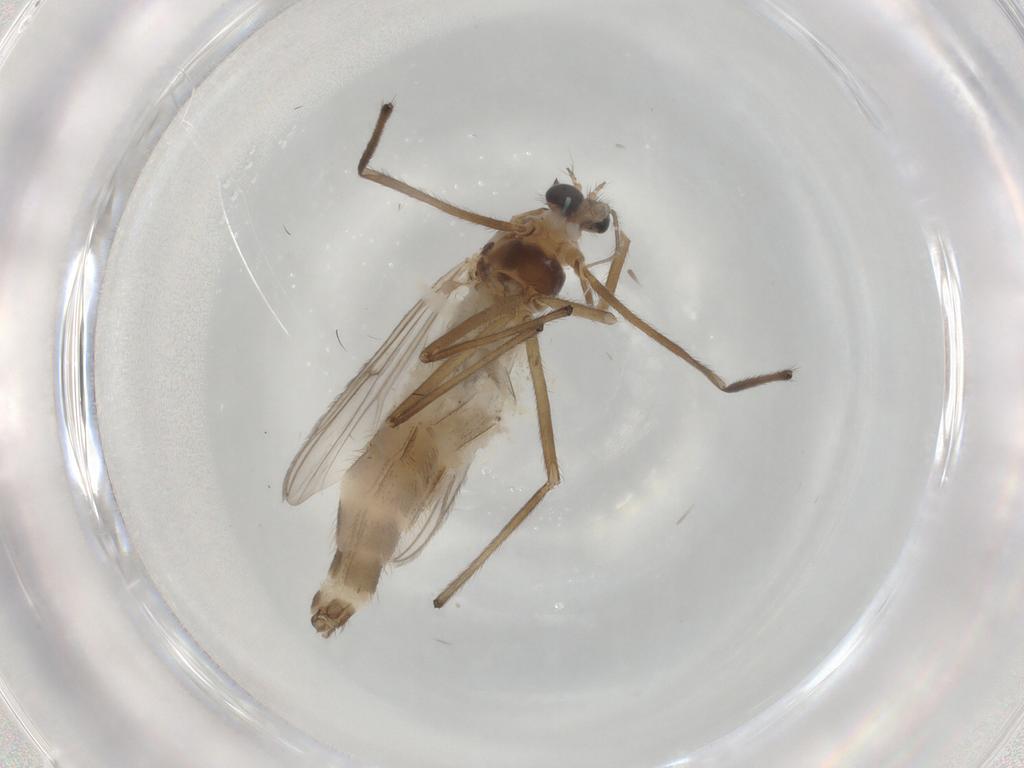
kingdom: Animalia
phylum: Arthropoda
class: Insecta
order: Diptera
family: Chironomidae
